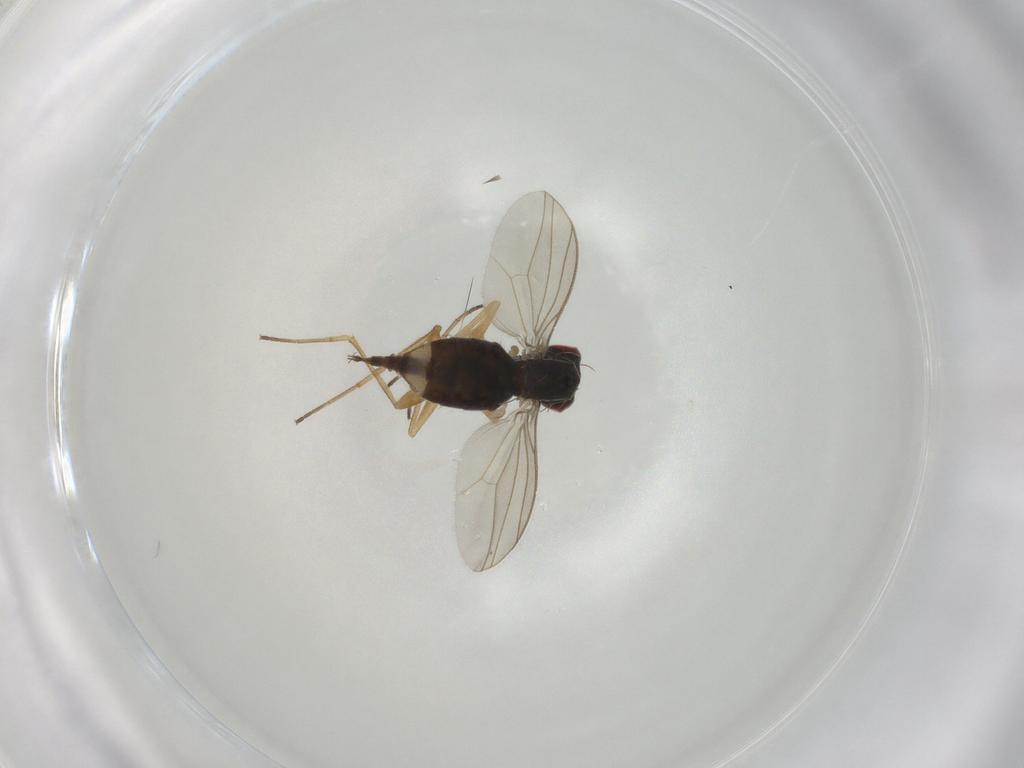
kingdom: Animalia
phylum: Arthropoda
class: Insecta
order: Diptera
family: Dolichopodidae
